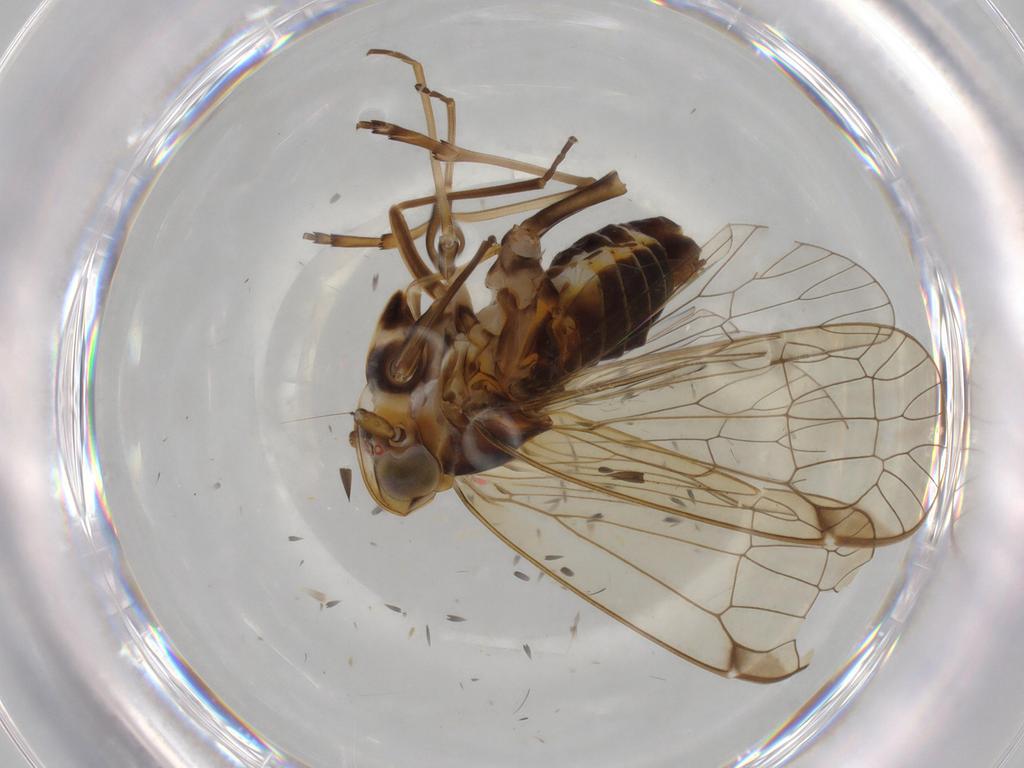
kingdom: Animalia
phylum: Arthropoda
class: Insecta
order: Hemiptera
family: Kinnaridae
